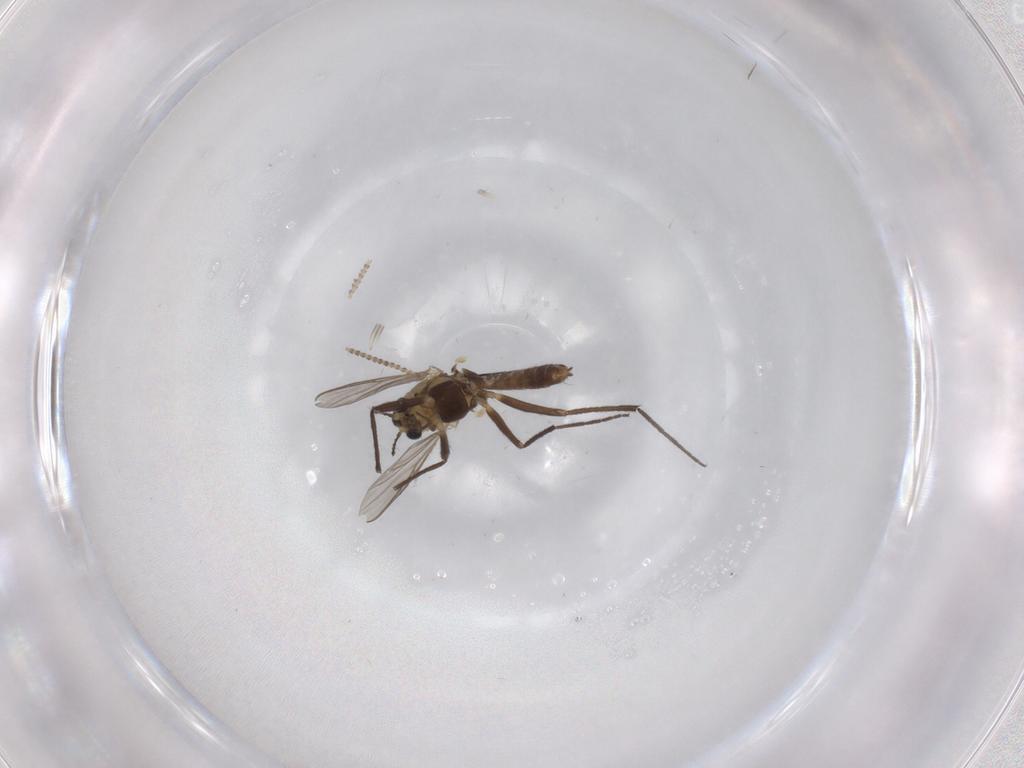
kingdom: Animalia
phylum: Arthropoda
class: Insecta
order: Diptera
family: Chironomidae
